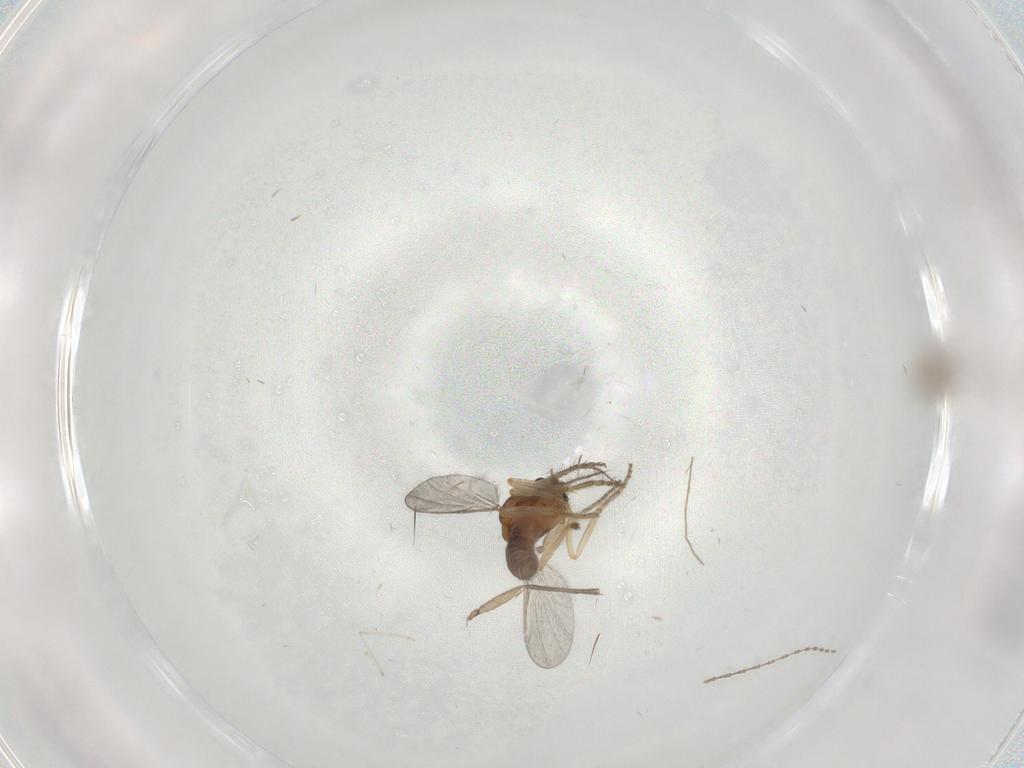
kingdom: Animalia
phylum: Arthropoda
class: Insecta
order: Diptera
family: Cecidomyiidae
